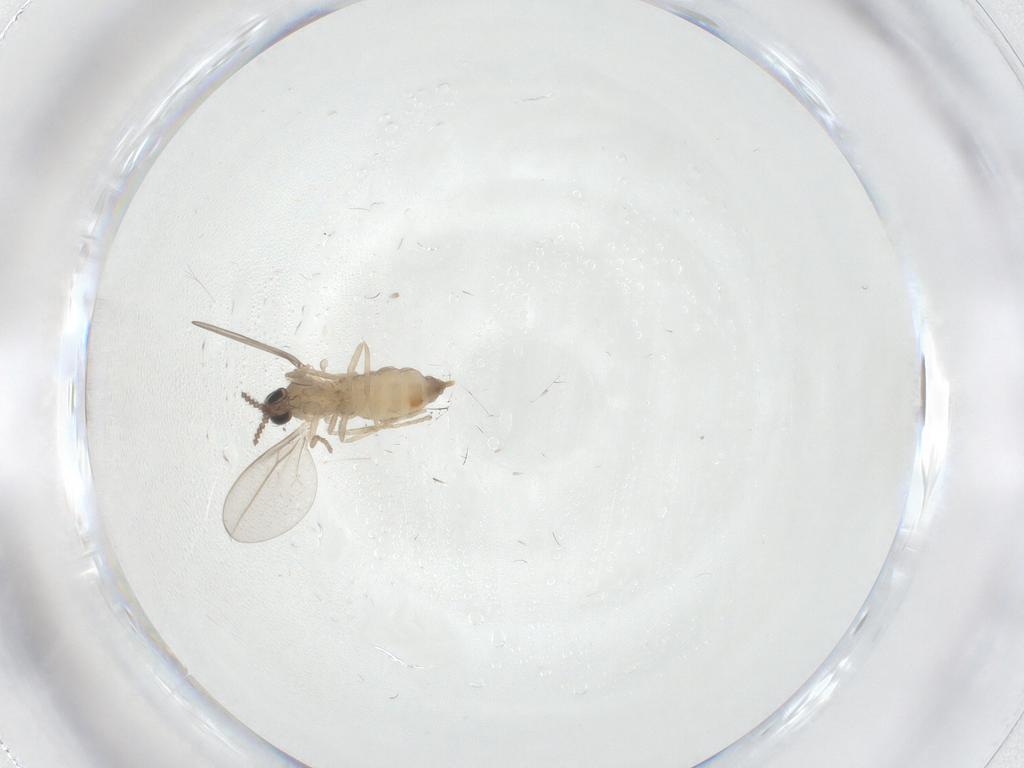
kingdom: Animalia
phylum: Arthropoda
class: Insecta
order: Diptera
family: Cecidomyiidae
